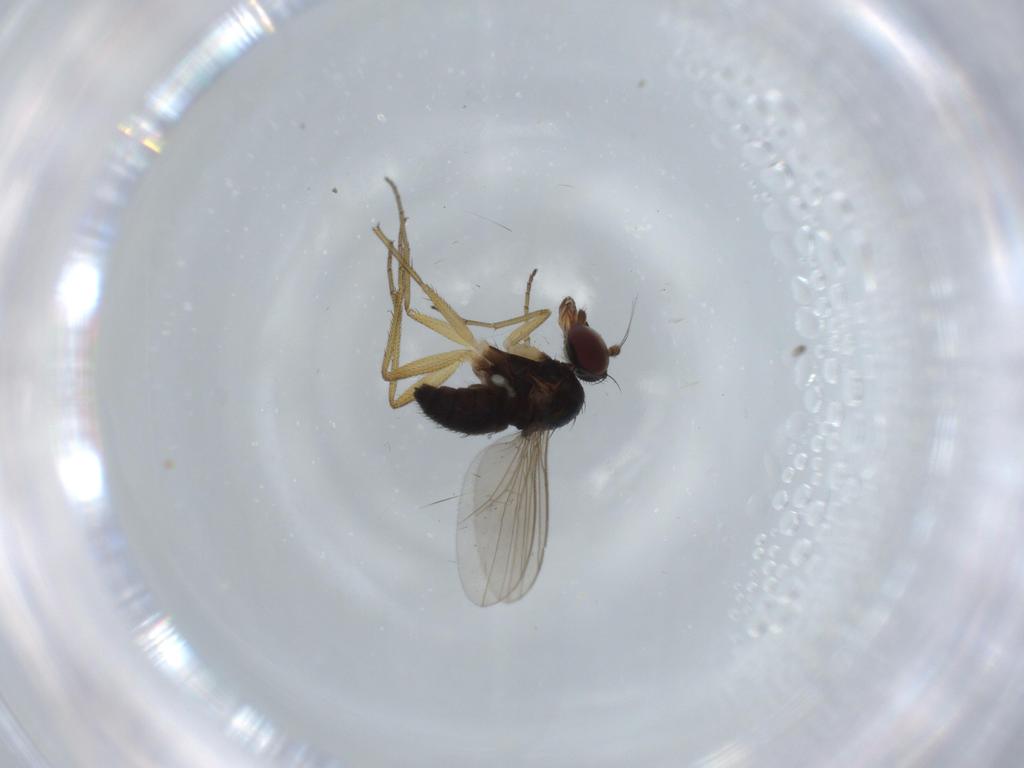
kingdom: Animalia
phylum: Arthropoda
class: Insecta
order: Diptera
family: Dolichopodidae
